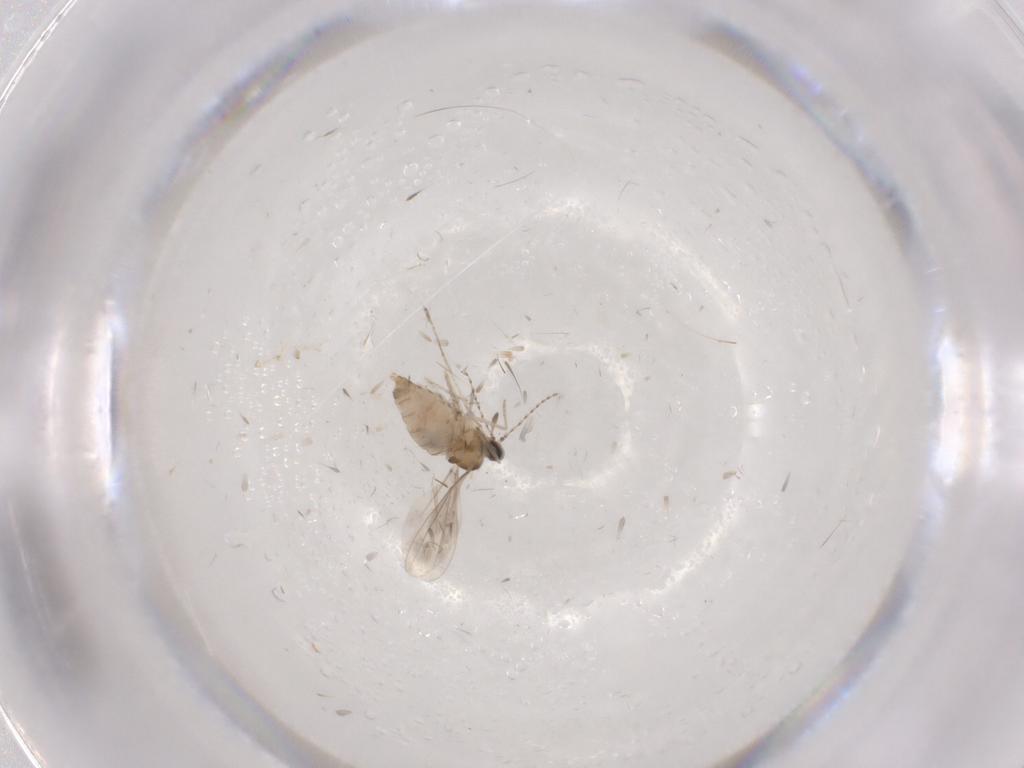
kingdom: Animalia
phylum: Arthropoda
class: Insecta
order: Diptera
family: Cecidomyiidae
